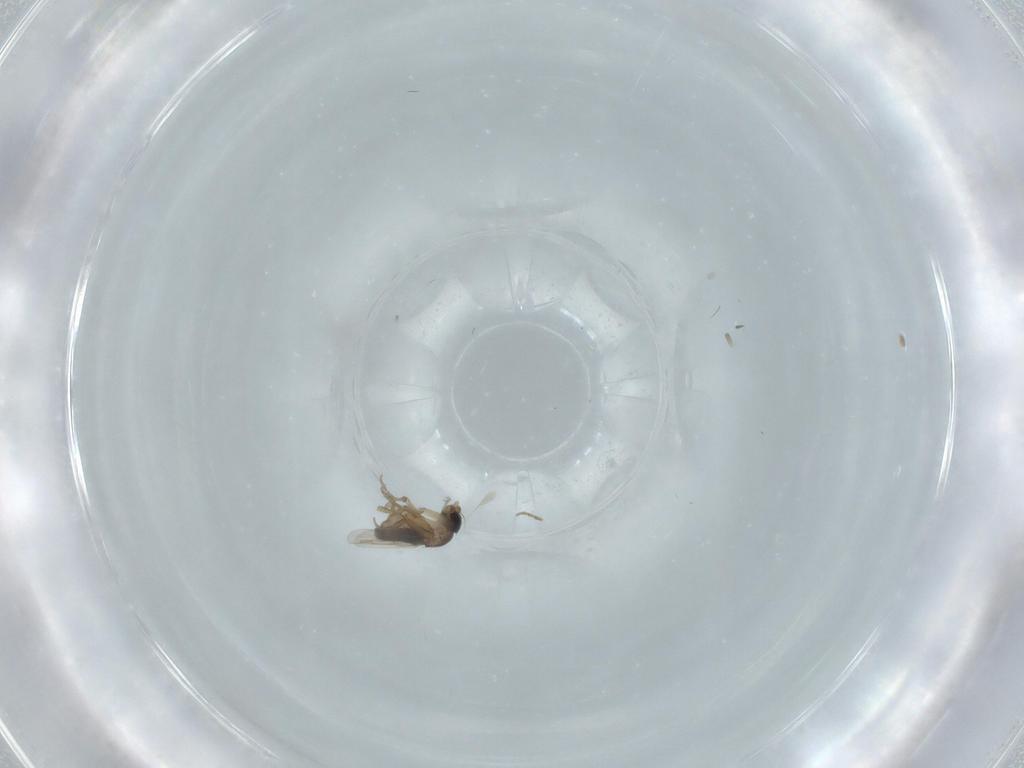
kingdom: Animalia
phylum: Arthropoda
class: Insecta
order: Diptera
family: Phoridae
